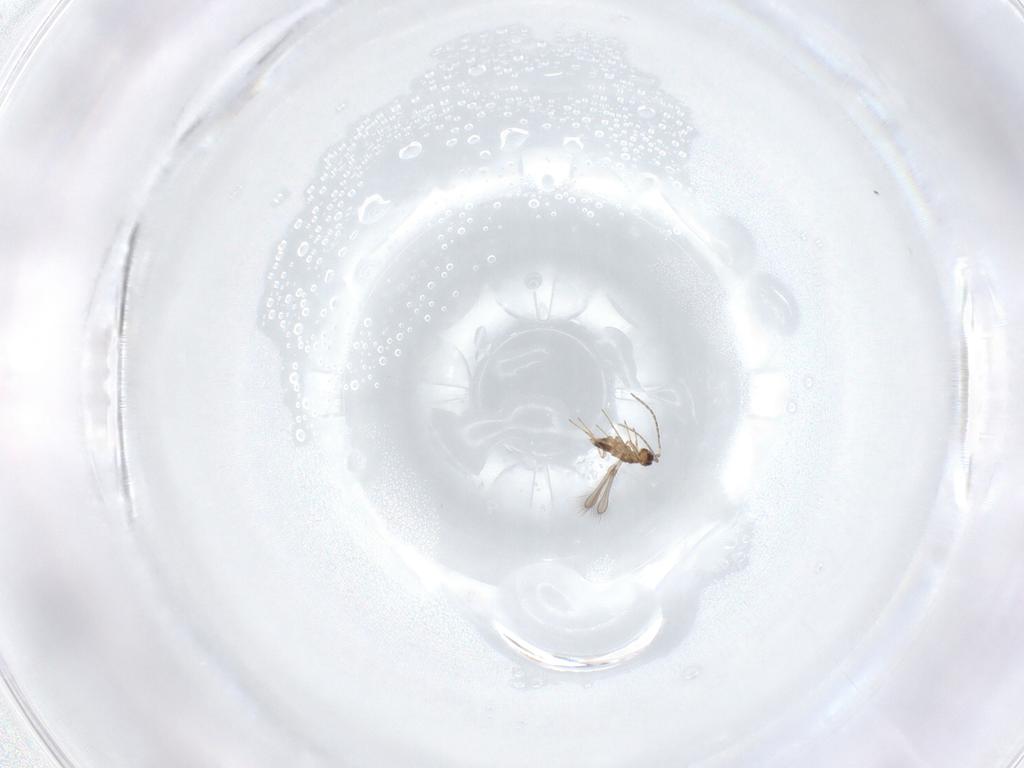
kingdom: Animalia
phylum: Arthropoda
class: Insecta
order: Hymenoptera
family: Mymaridae
